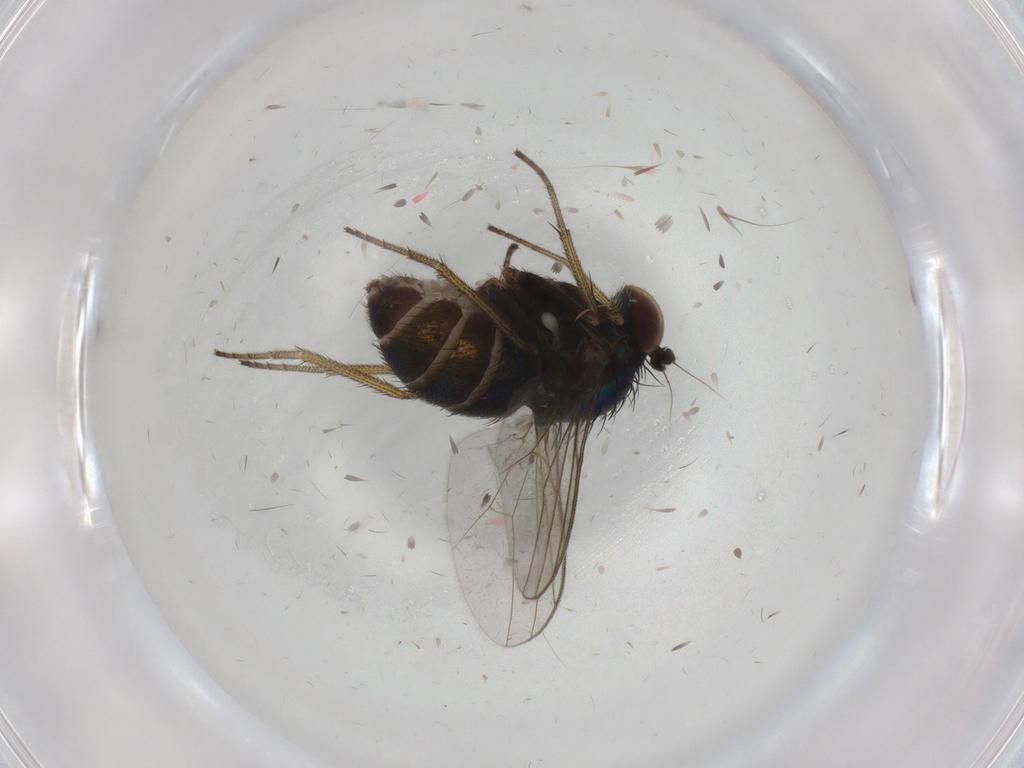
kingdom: Animalia
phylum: Arthropoda
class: Insecta
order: Diptera
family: Cecidomyiidae
